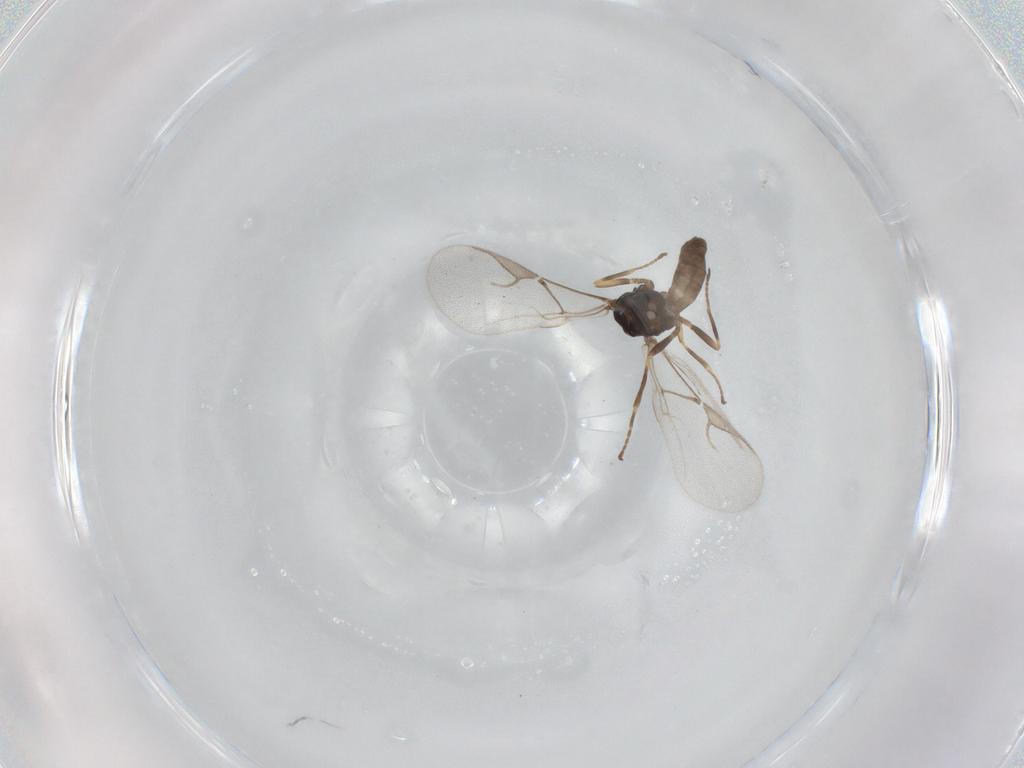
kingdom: Animalia
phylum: Arthropoda
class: Insecta
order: Hymenoptera
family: Braconidae
